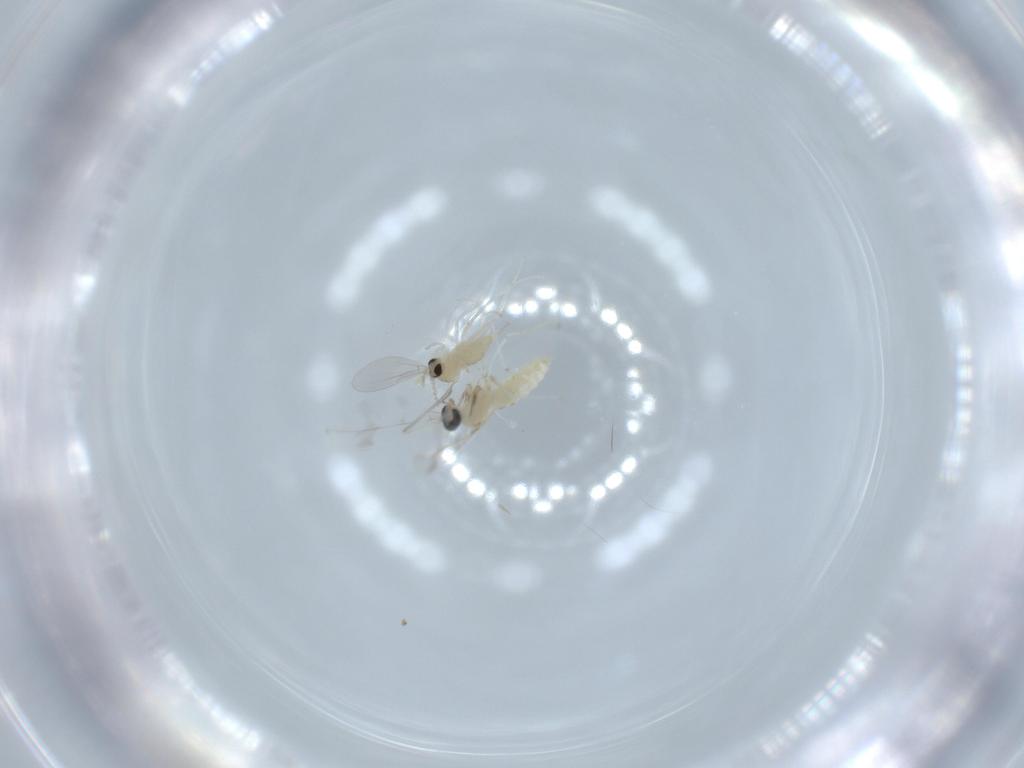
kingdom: Animalia
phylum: Arthropoda
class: Insecta
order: Diptera
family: Cecidomyiidae
